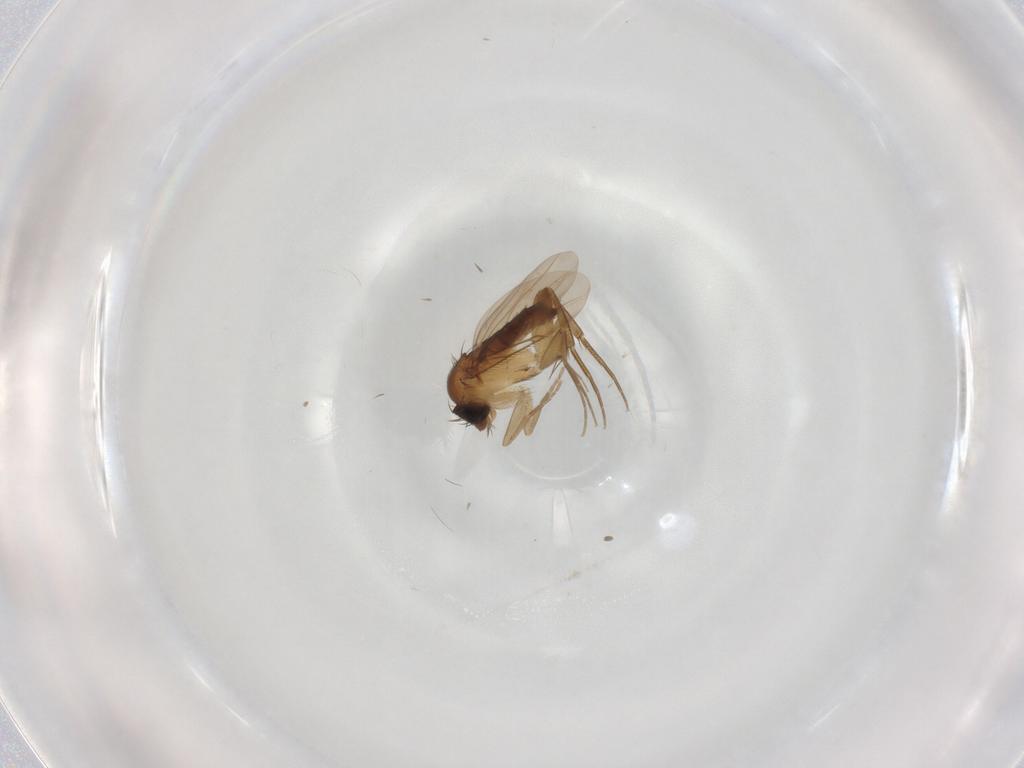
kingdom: Animalia
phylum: Arthropoda
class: Insecta
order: Diptera
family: Phoridae
